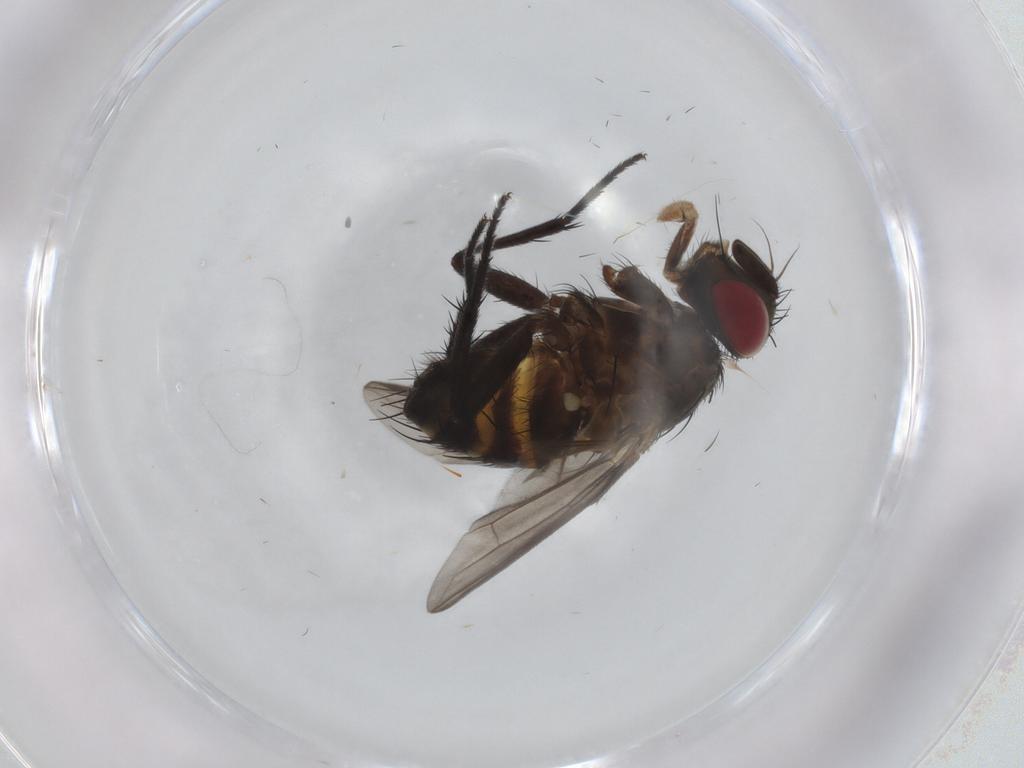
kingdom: Animalia
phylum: Arthropoda
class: Insecta
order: Diptera
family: Tachinidae
